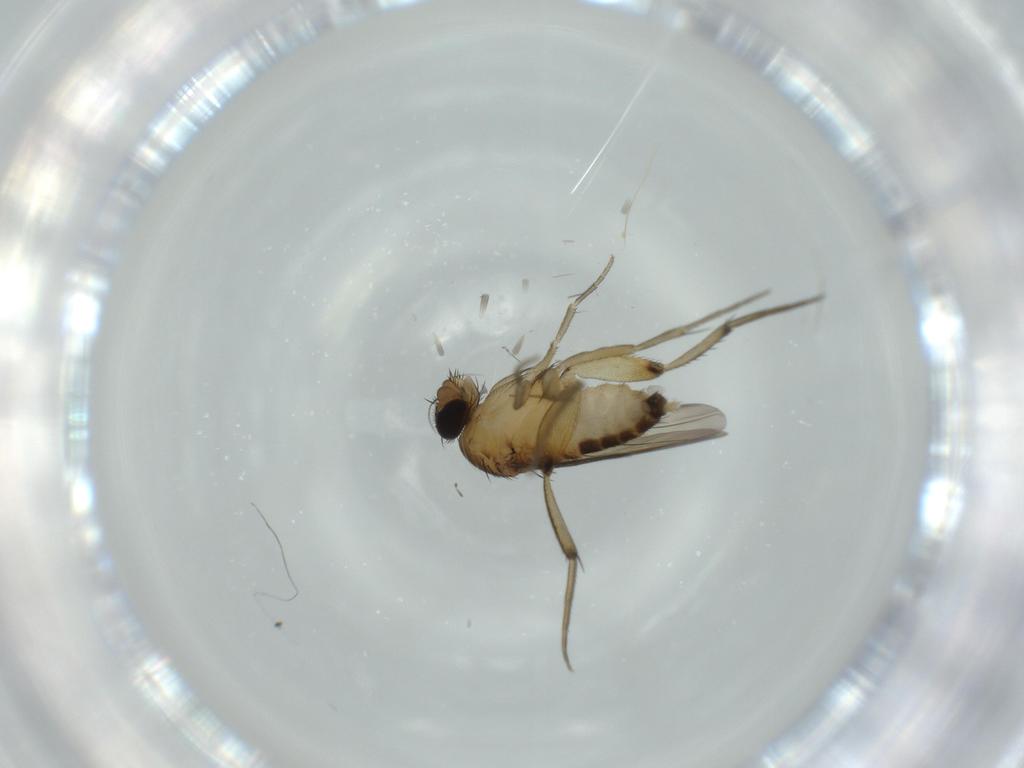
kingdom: Animalia
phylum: Arthropoda
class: Insecta
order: Diptera
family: Phoridae
